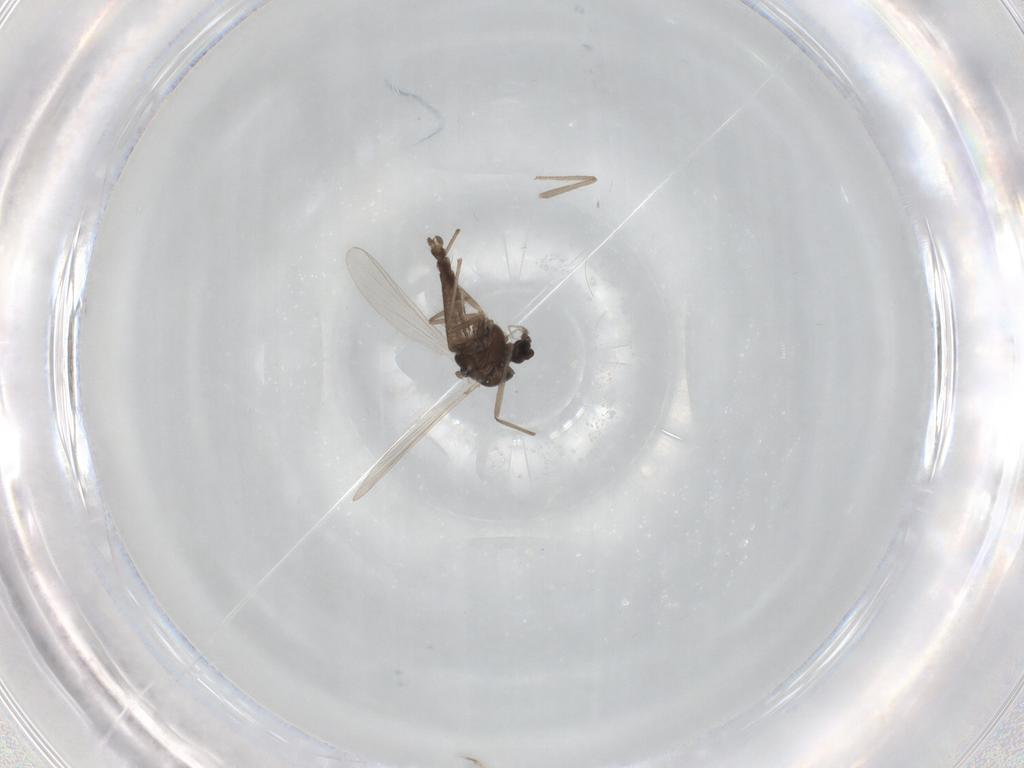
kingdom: Animalia
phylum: Arthropoda
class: Insecta
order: Diptera
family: Chironomidae
